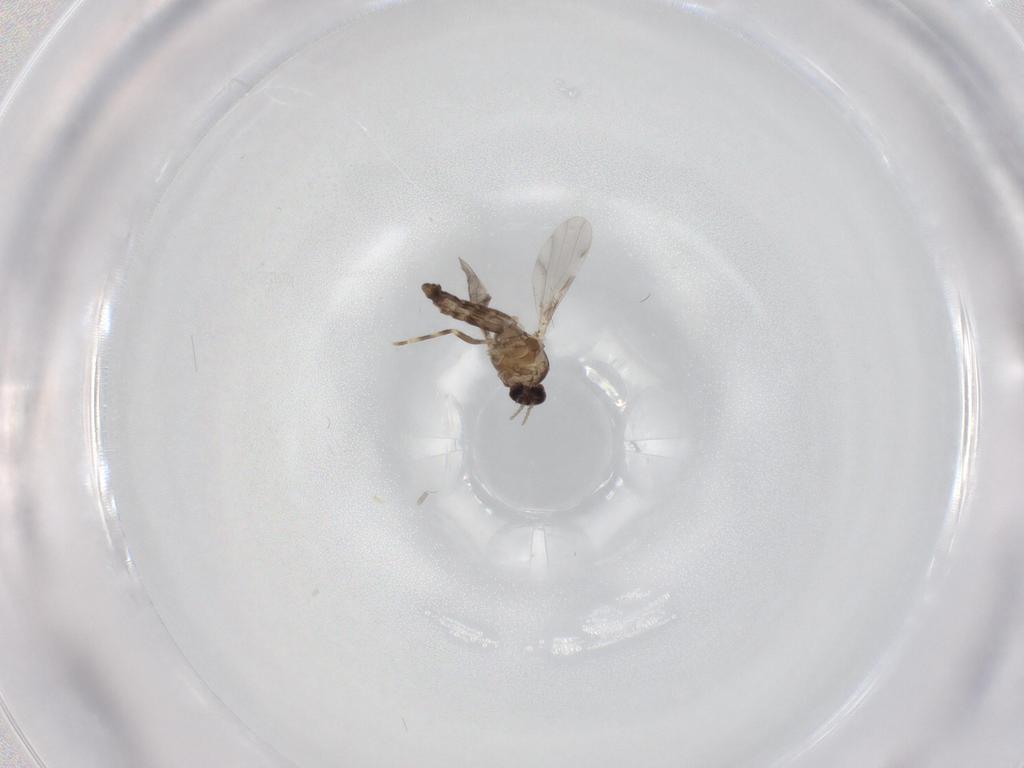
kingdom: Animalia
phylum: Arthropoda
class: Insecta
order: Diptera
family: Ceratopogonidae
